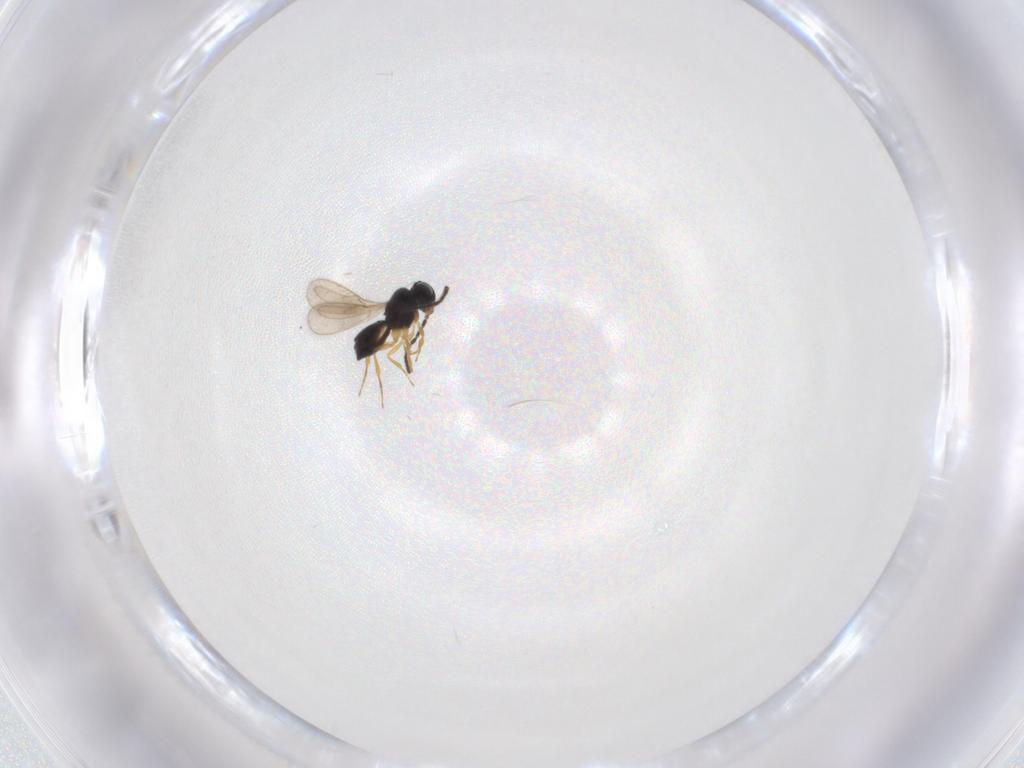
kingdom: Animalia
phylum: Arthropoda
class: Insecta
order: Hymenoptera
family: Scelionidae
